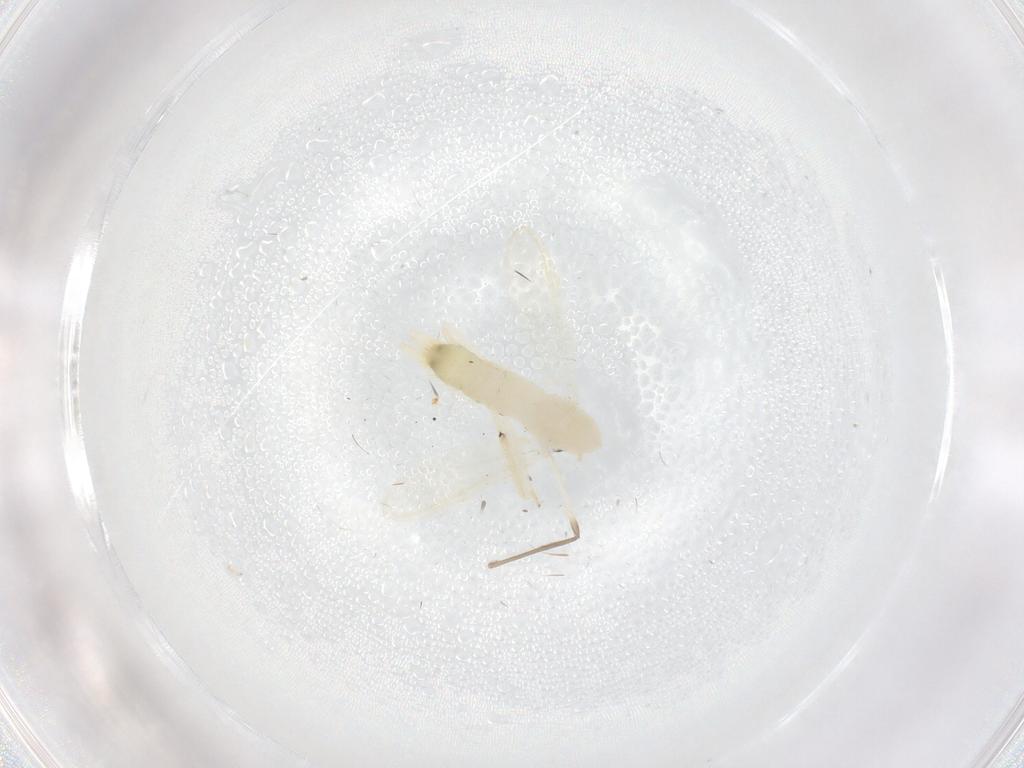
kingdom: Animalia
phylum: Arthropoda
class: Insecta
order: Diptera
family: Chironomidae
